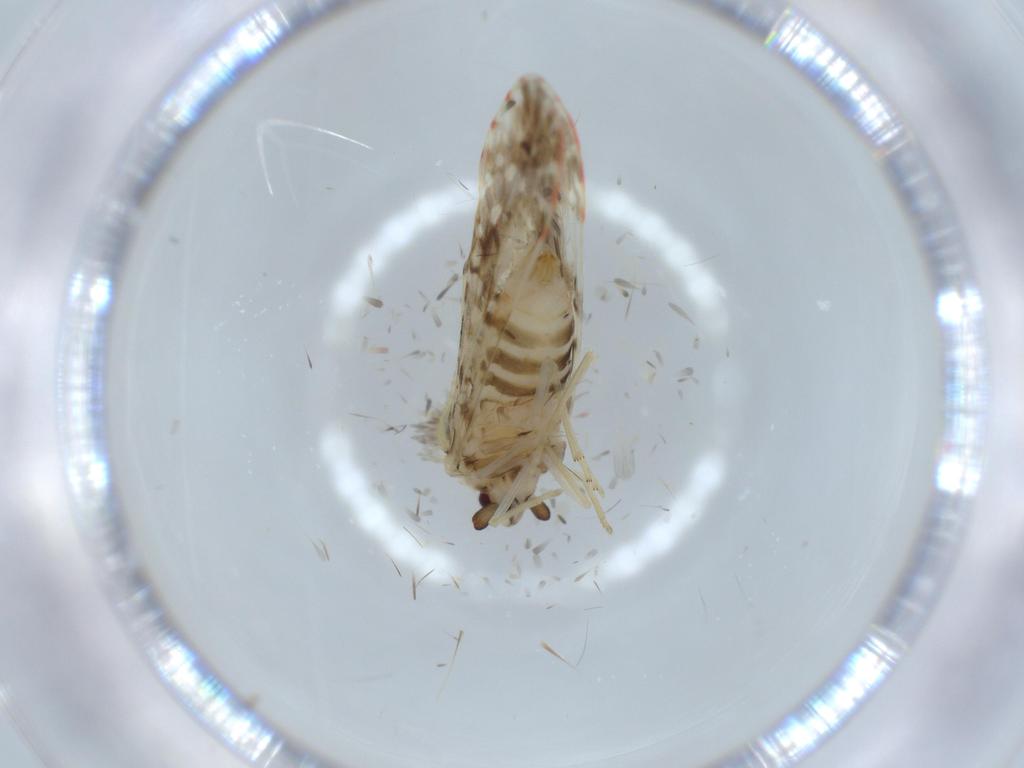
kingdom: Animalia
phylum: Arthropoda
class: Insecta
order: Hemiptera
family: Derbidae
